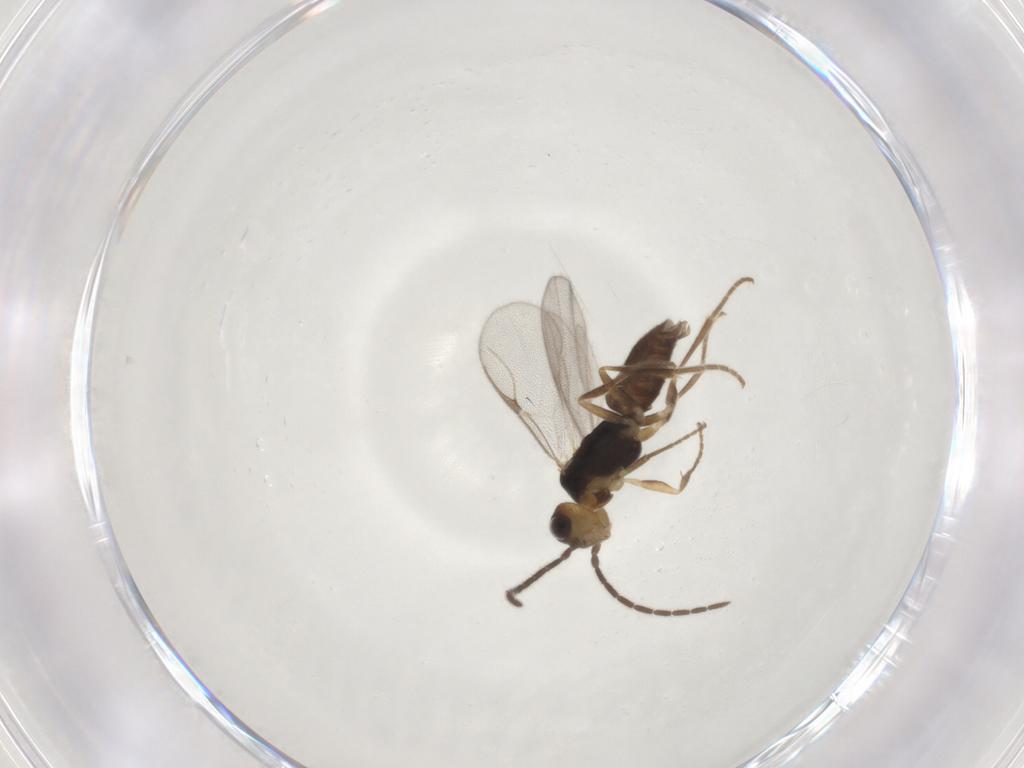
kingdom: Animalia
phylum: Arthropoda
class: Insecta
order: Hymenoptera
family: Dryinidae
